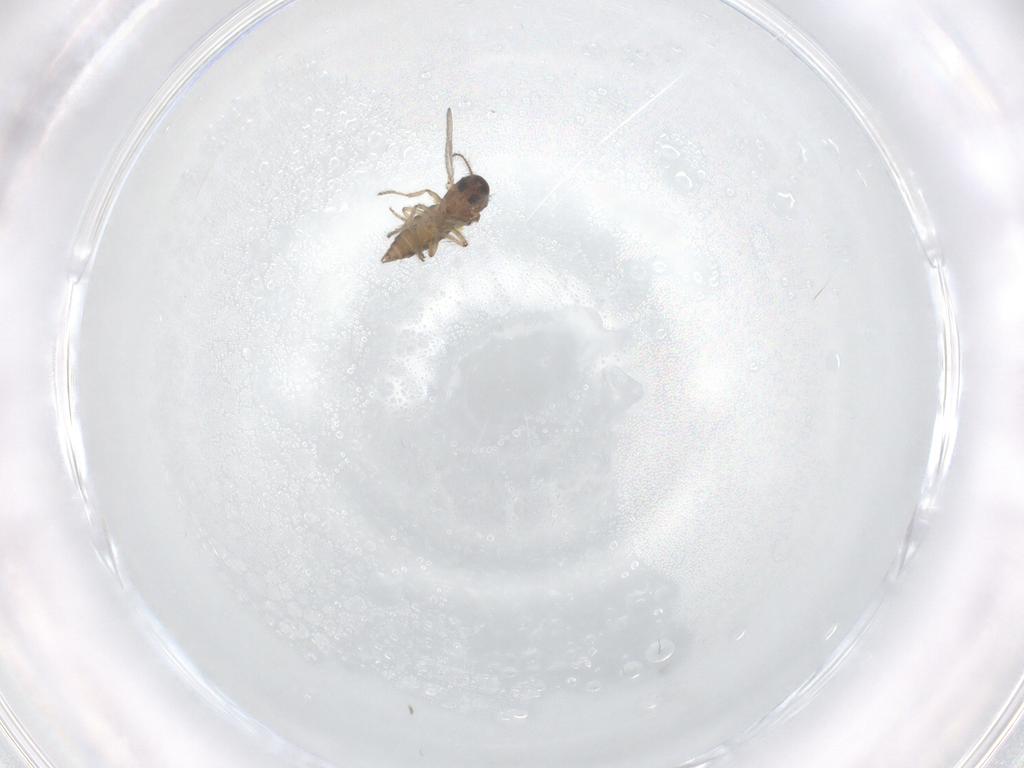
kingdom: Animalia
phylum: Arthropoda
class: Insecta
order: Diptera
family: Ceratopogonidae
